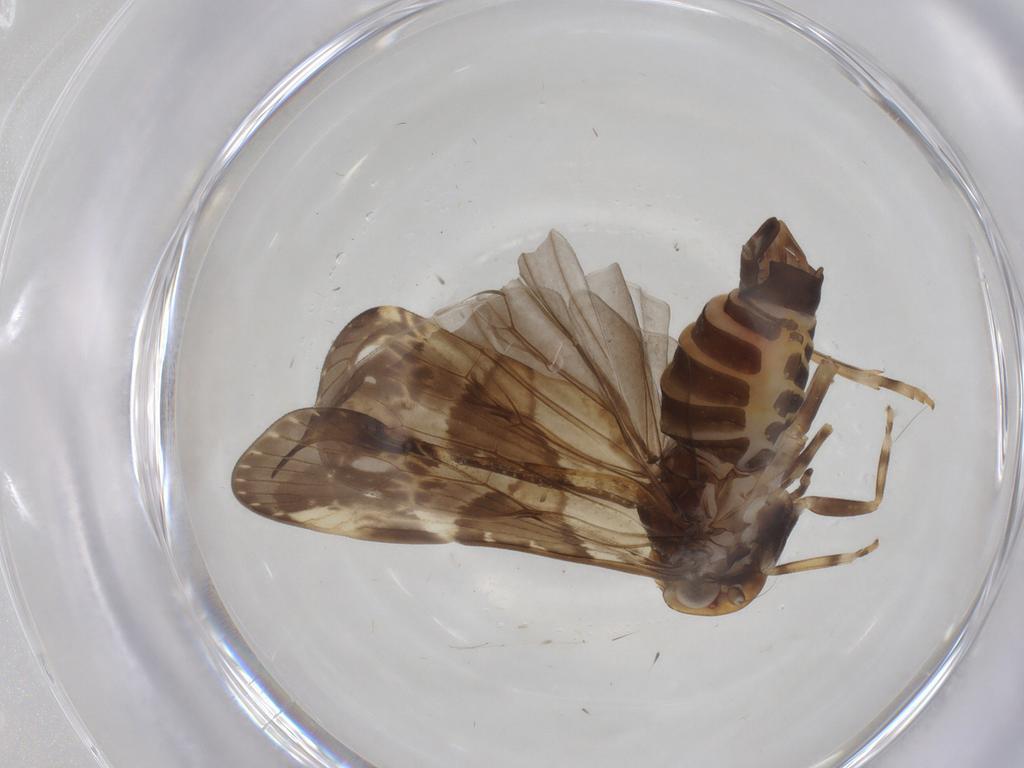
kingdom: Animalia
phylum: Arthropoda
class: Insecta
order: Hemiptera
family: Cixiidae
